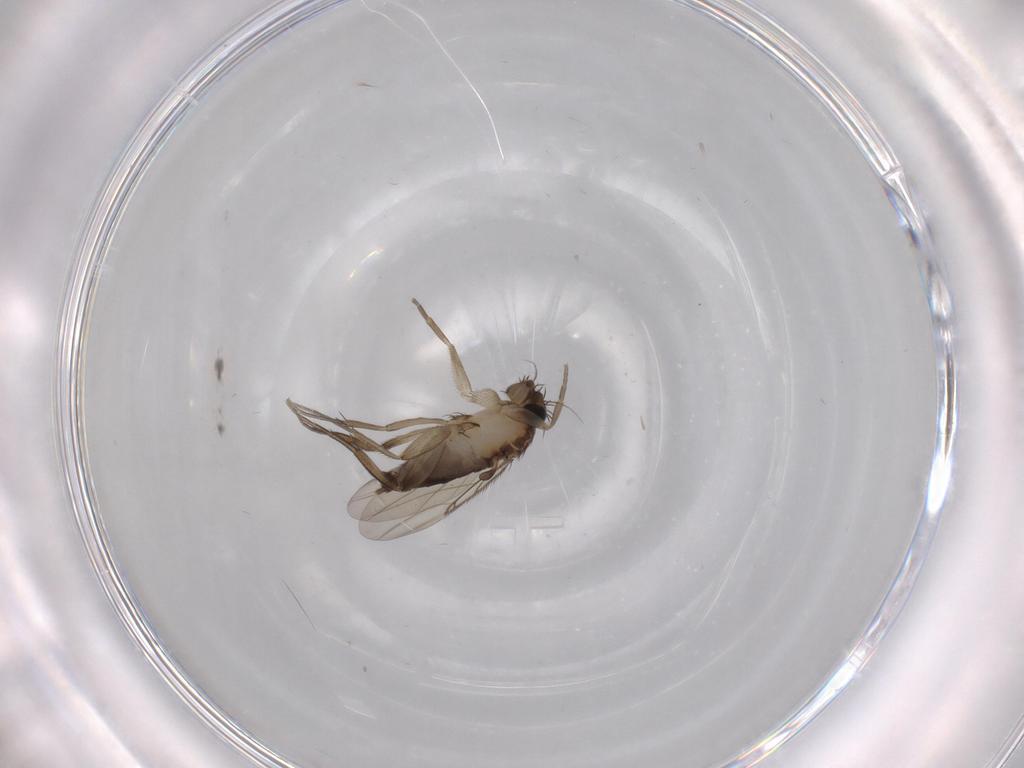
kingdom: Animalia
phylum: Arthropoda
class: Insecta
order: Diptera
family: Phoridae
